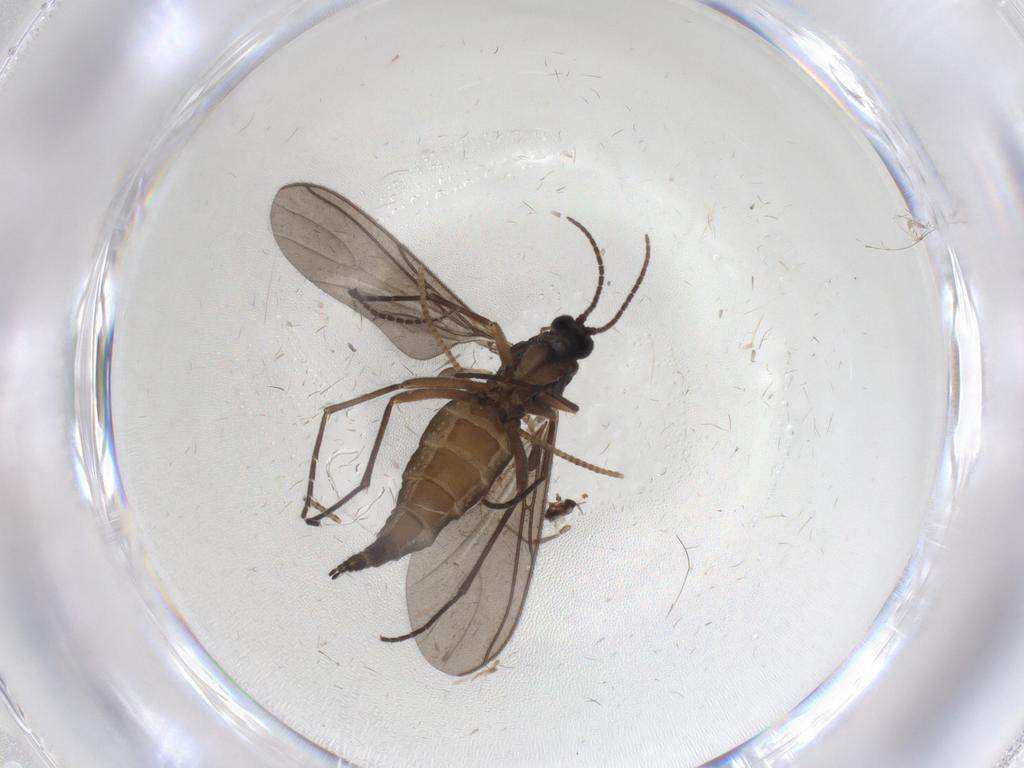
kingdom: Animalia
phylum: Arthropoda
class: Insecta
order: Diptera
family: Sciaridae
